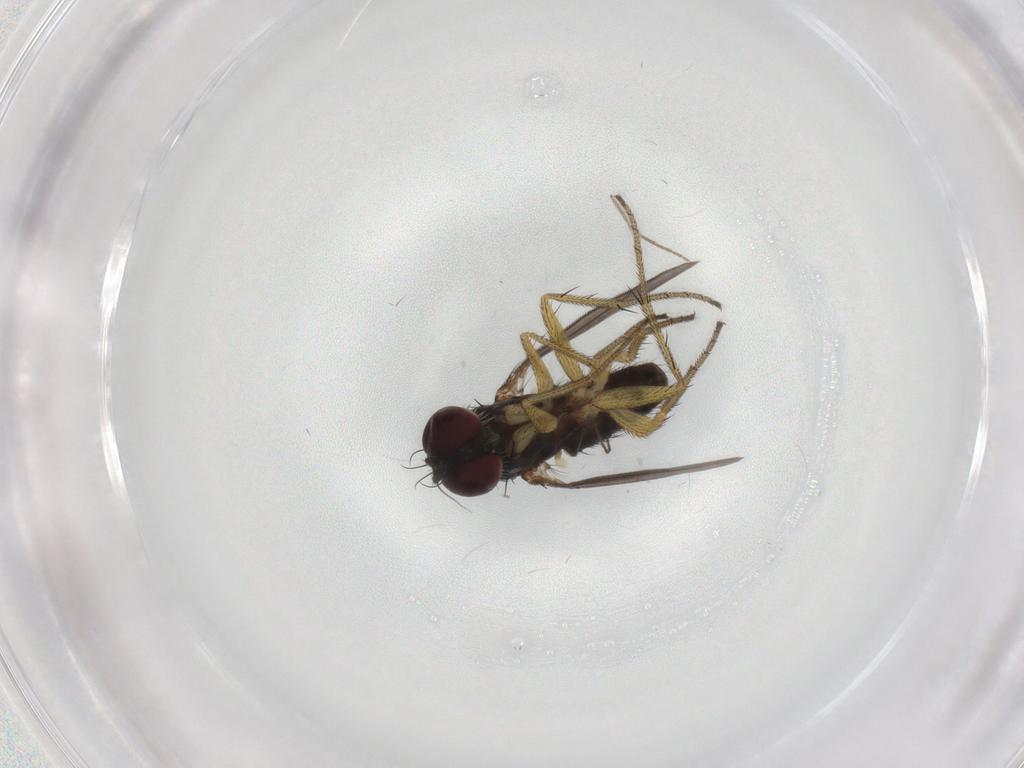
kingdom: Animalia
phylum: Arthropoda
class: Insecta
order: Diptera
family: Chironomidae
